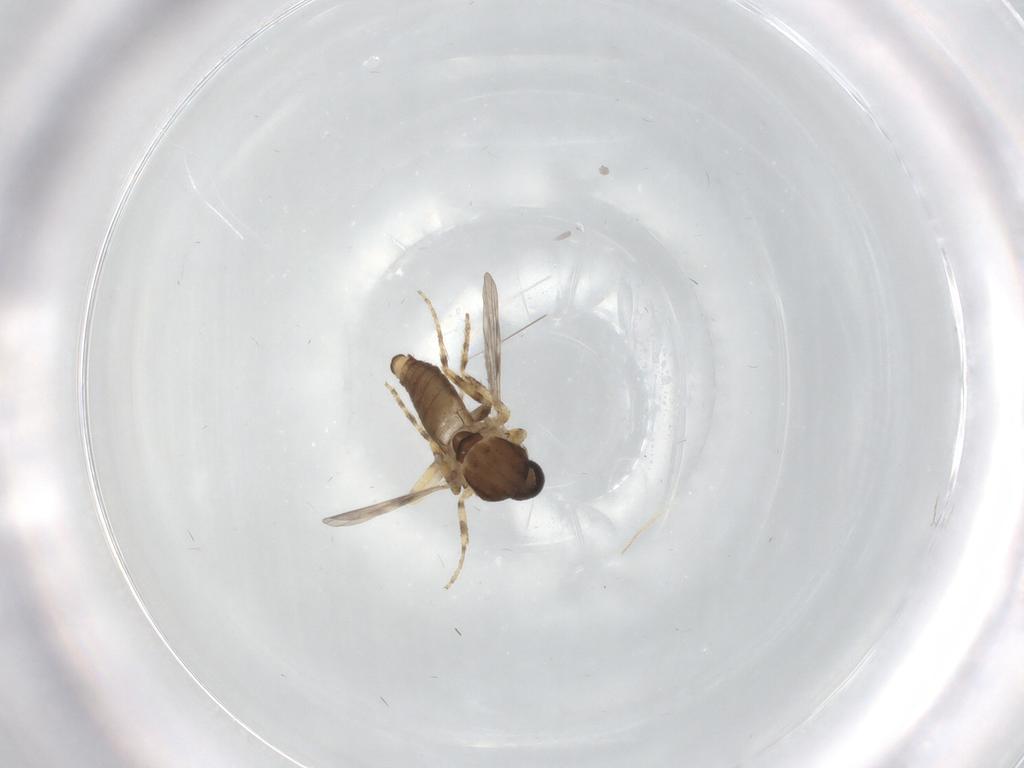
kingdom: Animalia
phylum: Arthropoda
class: Insecta
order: Diptera
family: Ceratopogonidae
